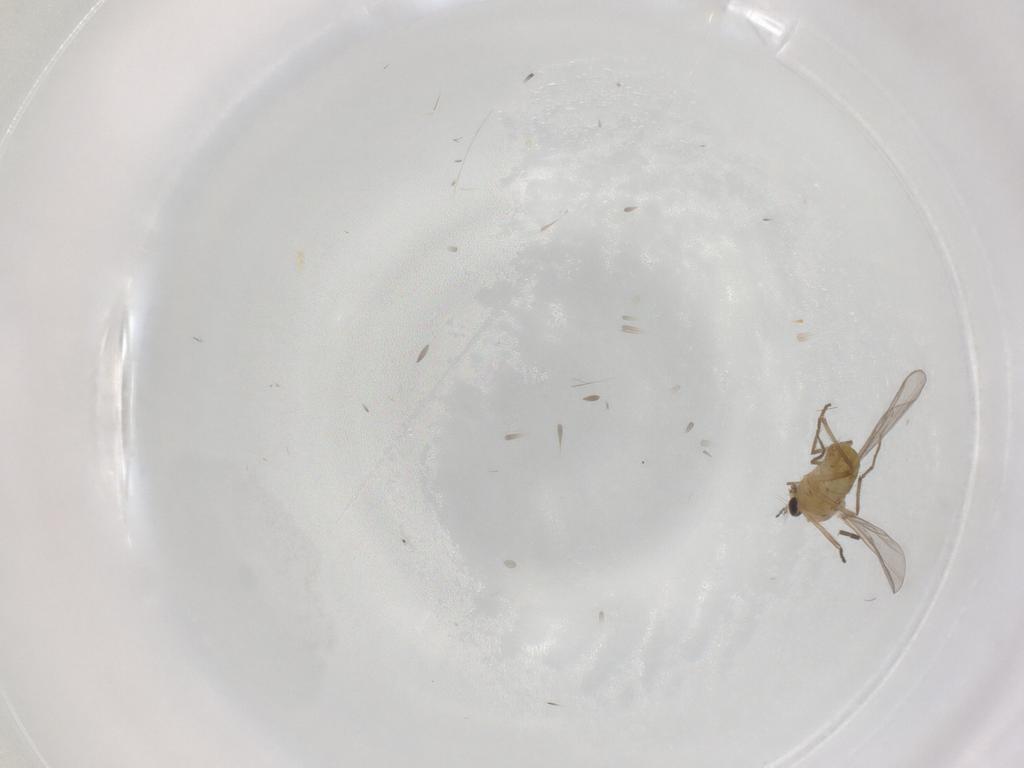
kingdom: Animalia
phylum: Arthropoda
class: Insecta
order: Diptera
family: Chironomidae
